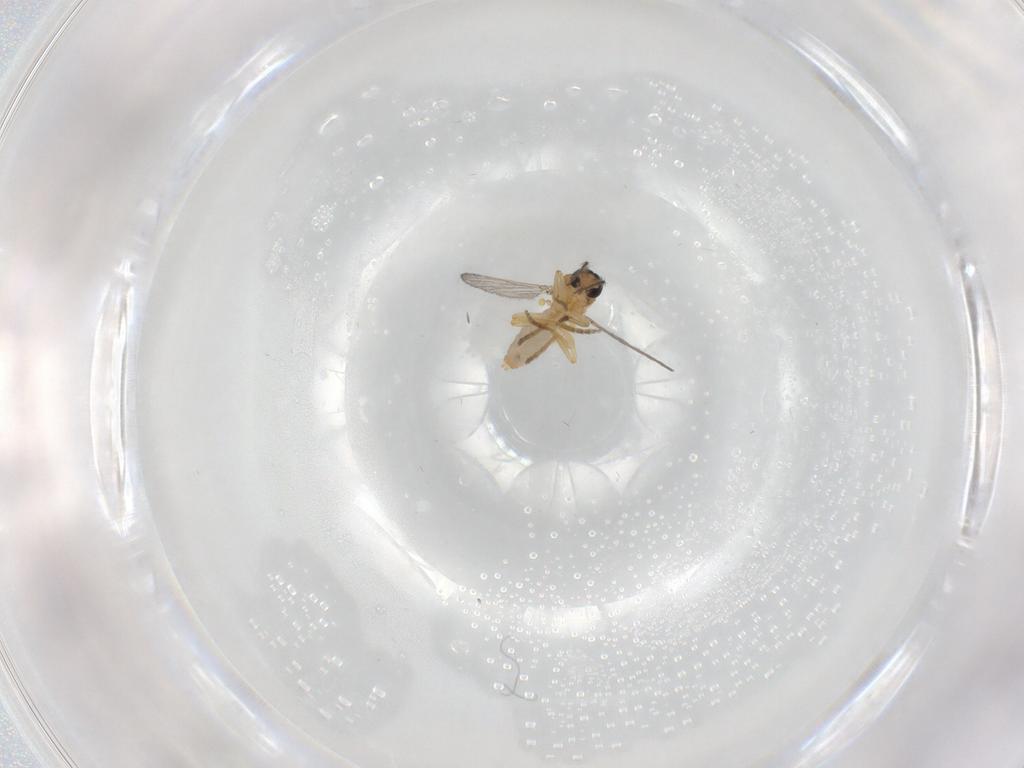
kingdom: Animalia
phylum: Arthropoda
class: Insecta
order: Diptera
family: Ceratopogonidae
